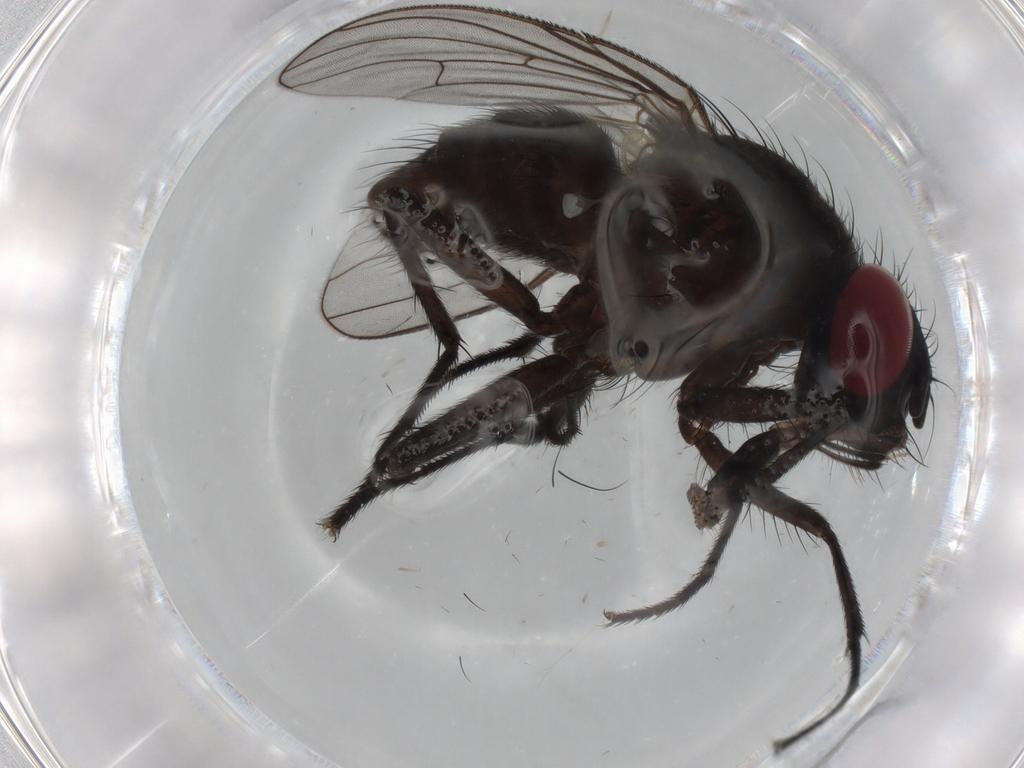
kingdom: Animalia
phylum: Arthropoda
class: Insecta
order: Diptera
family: Muscidae
